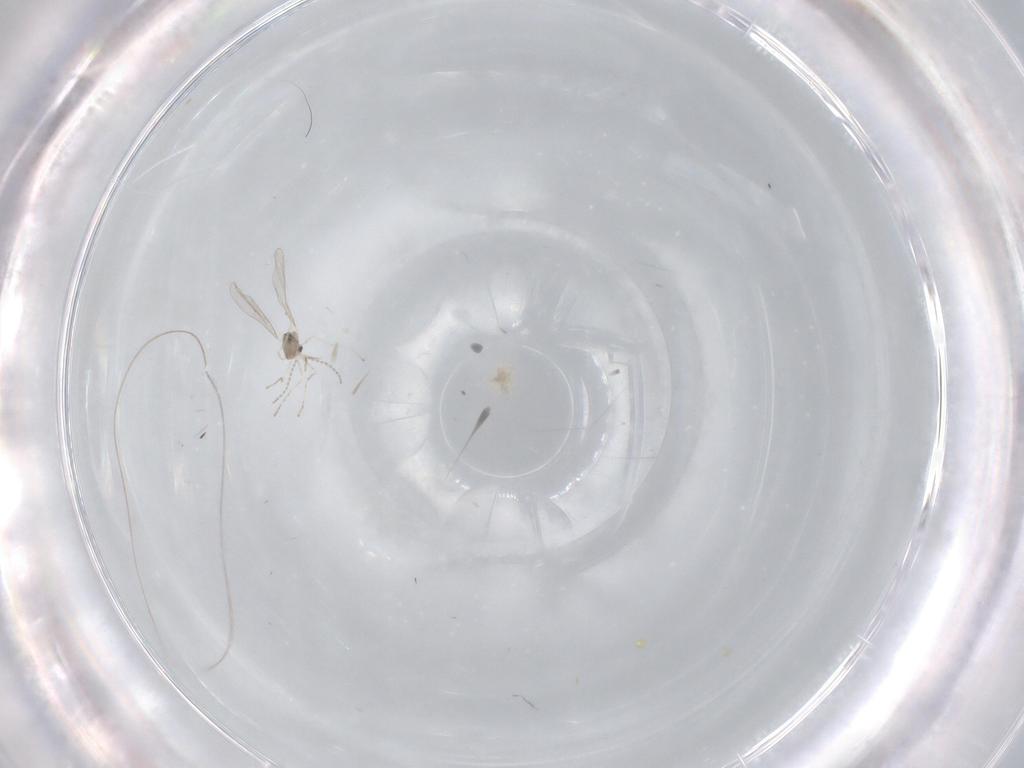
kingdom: Animalia
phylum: Arthropoda
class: Insecta
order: Diptera
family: Cecidomyiidae
